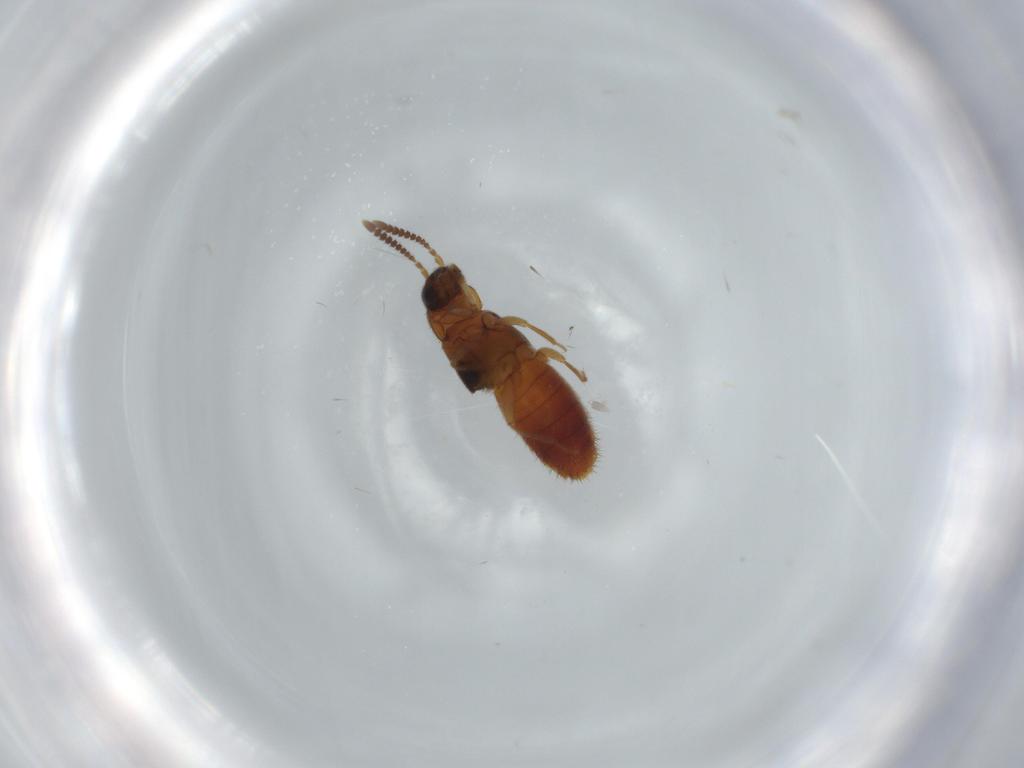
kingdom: Animalia
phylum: Arthropoda
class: Insecta
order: Coleoptera
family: Staphylinidae
